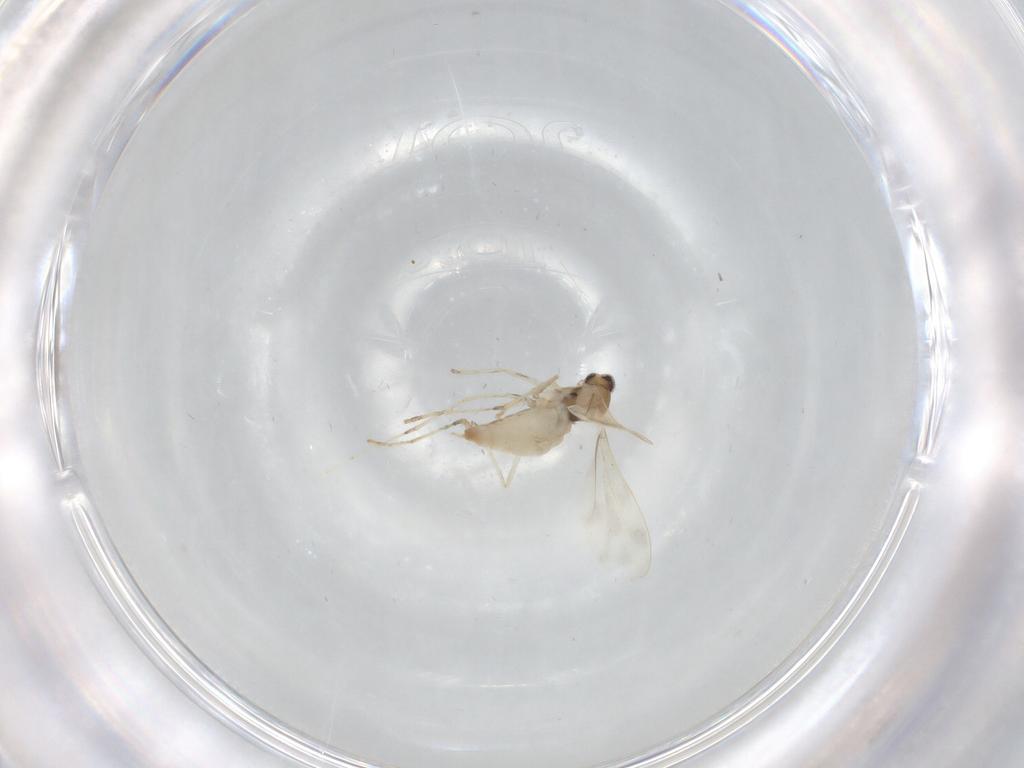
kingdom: Animalia
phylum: Arthropoda
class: Insecta
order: Diptera
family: Cecidomyiidae
